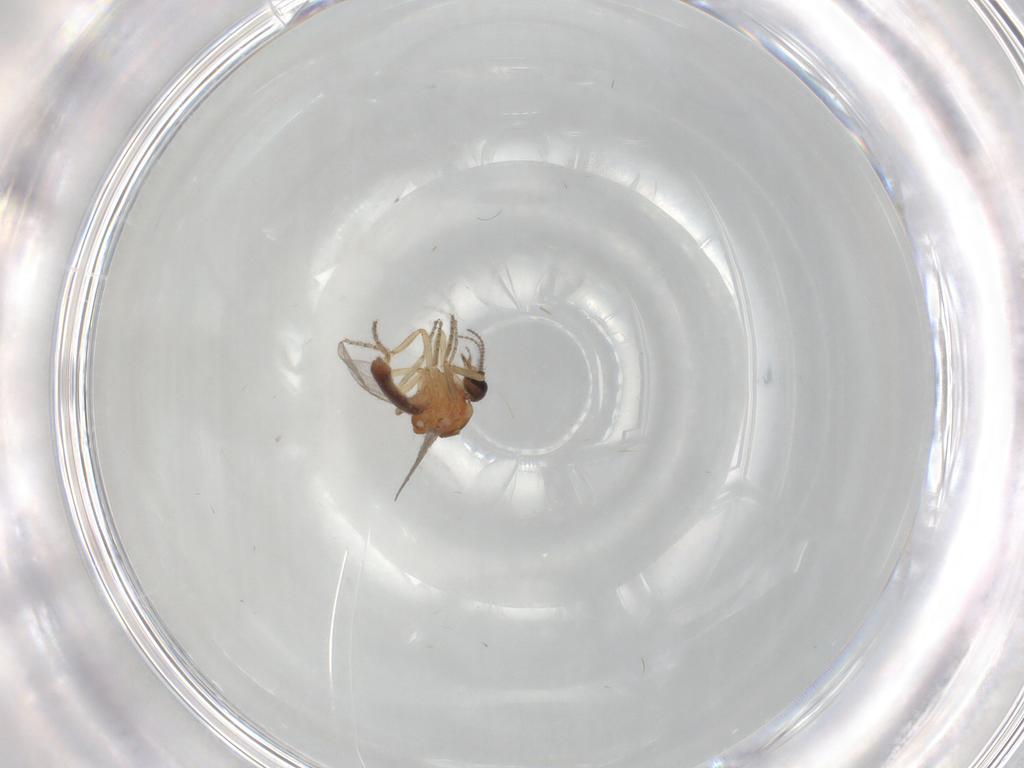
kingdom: Animalia
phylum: Arthropoda
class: Insecta
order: Diptera
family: Ceratopogonidae
